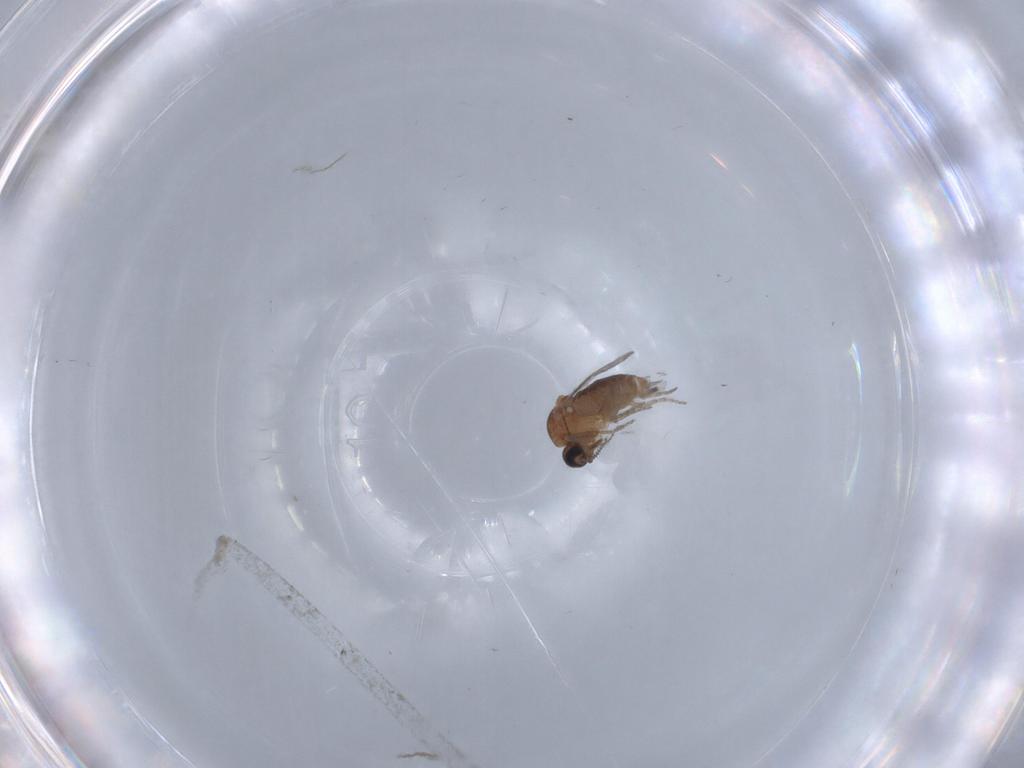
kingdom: Animalia
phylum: Arthropoda
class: Insecta
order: Diptera
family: Ceratopogonidae
